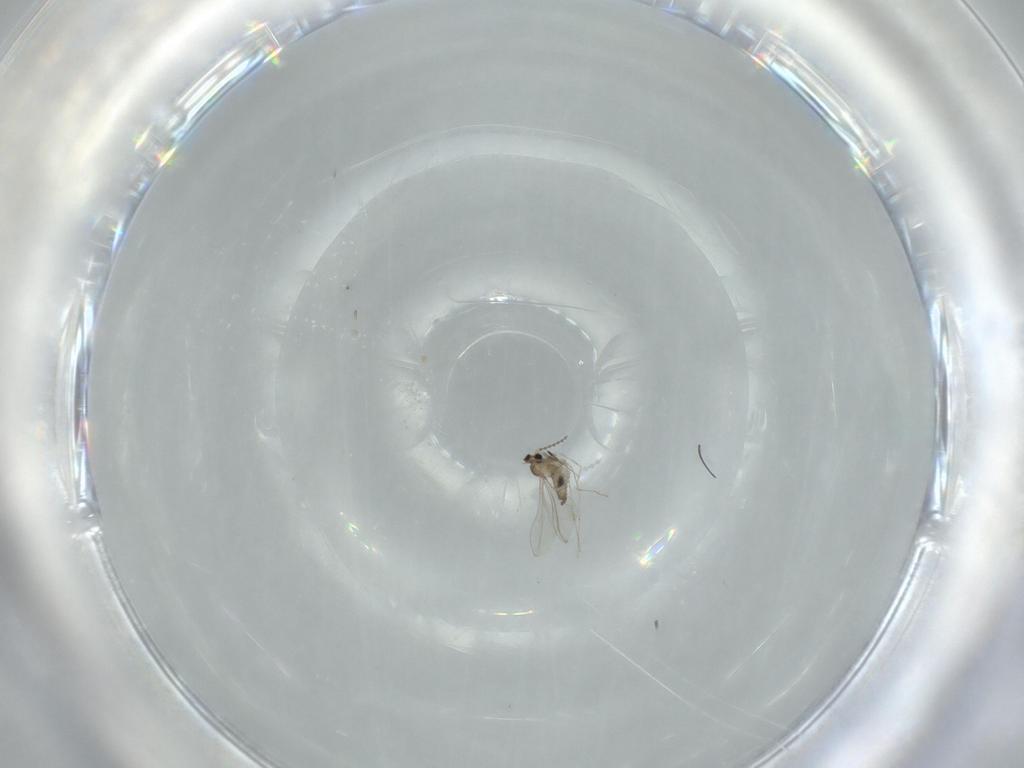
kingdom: Animalia
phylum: Arthropoda
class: Insecta
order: Diptera
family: Cecidomyiidae
